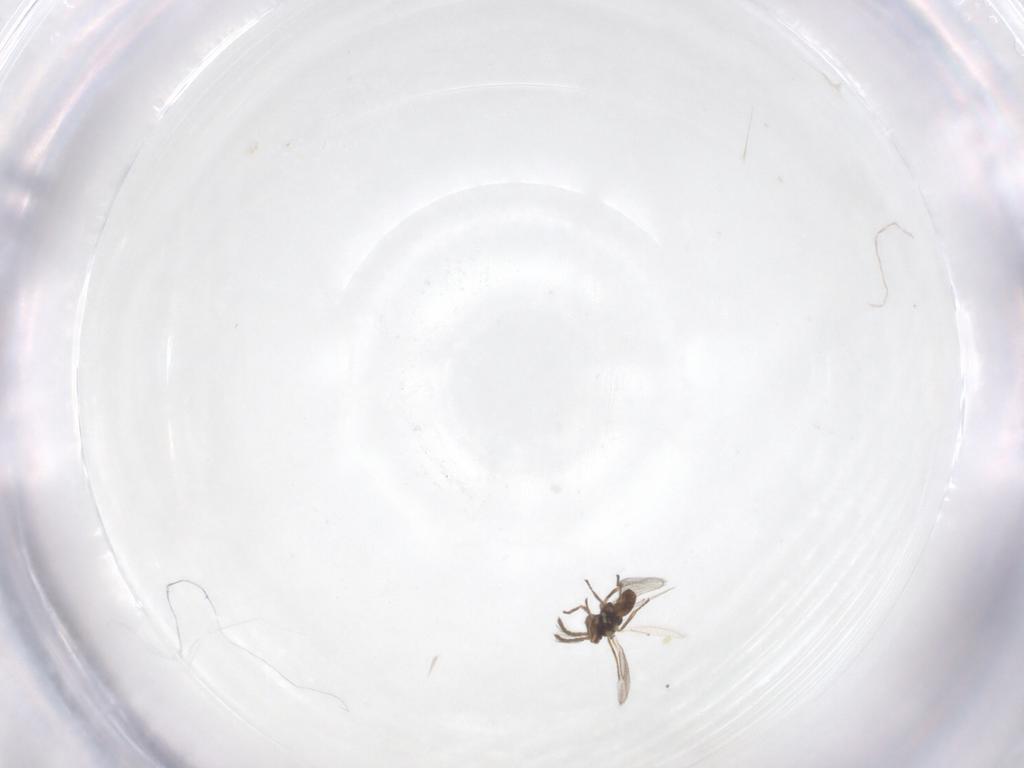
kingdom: Animalia
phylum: Arthropoda
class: Insecta
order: Hymenoptera
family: Eulophidae
